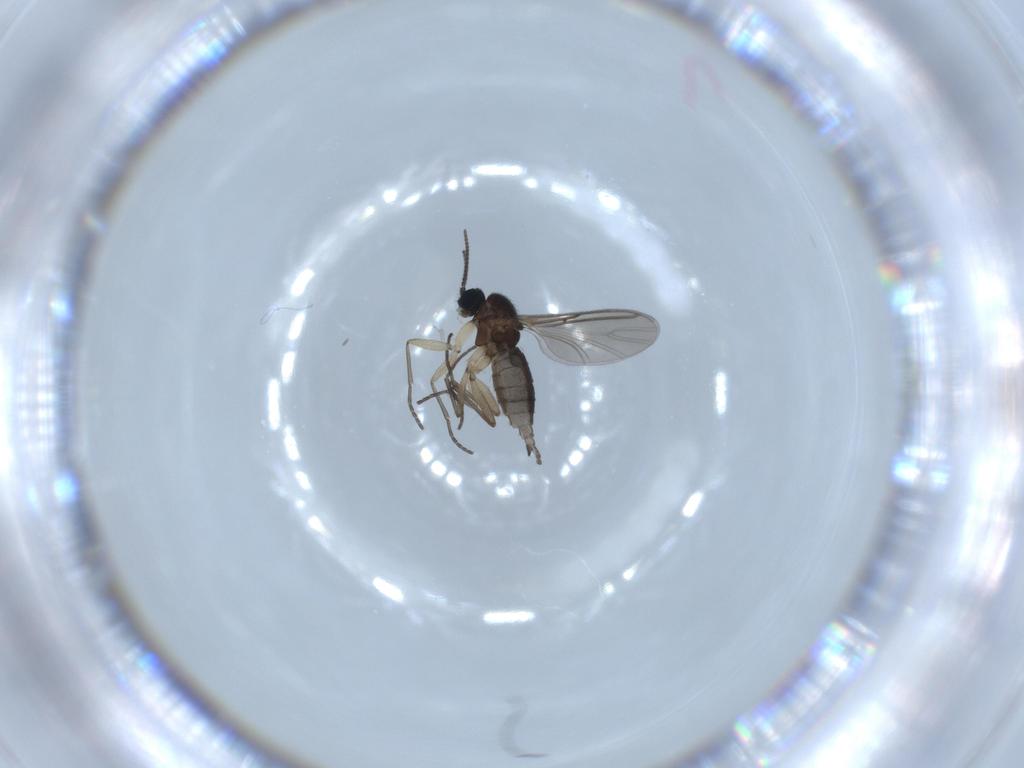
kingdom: Animalia
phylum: Arthropoda
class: Insecta
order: Diptera
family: Sciaridae
